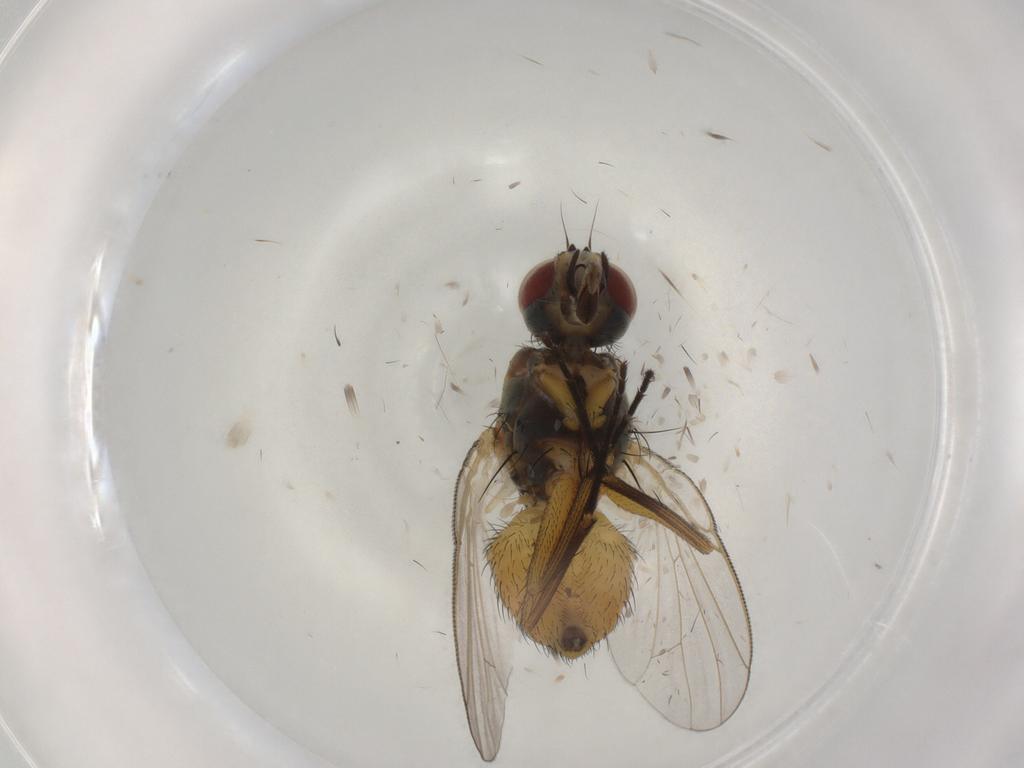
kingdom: Animalia
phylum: Arthropoda
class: Insecta
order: Diptera
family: Muscidae
